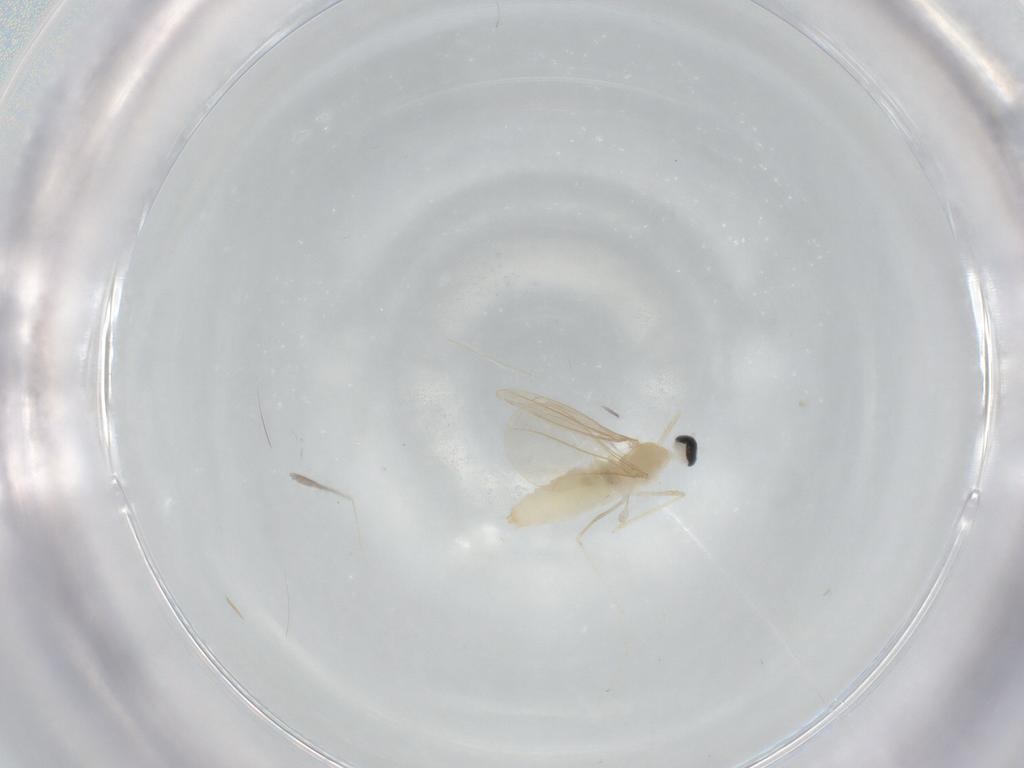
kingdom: Animalia
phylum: Arthropoda
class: Insecta
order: Diptera
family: Cecidomyiidae
